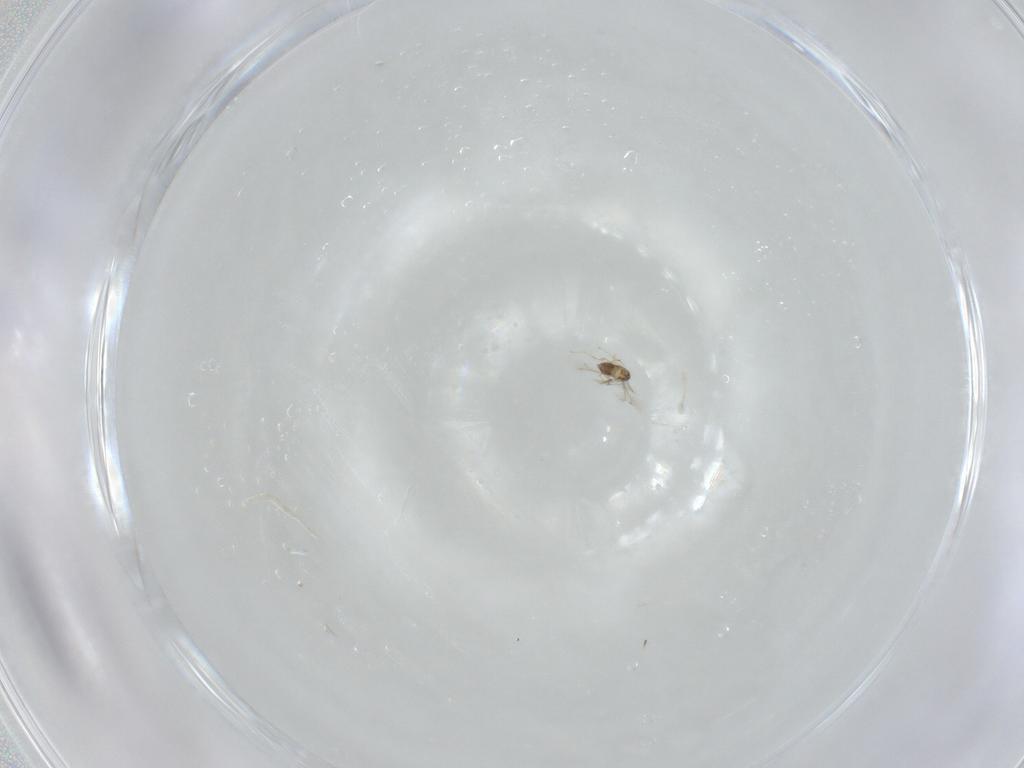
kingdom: Animalia
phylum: Arthropoda
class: Insecta
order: Hymenoptera
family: Mymaridae
